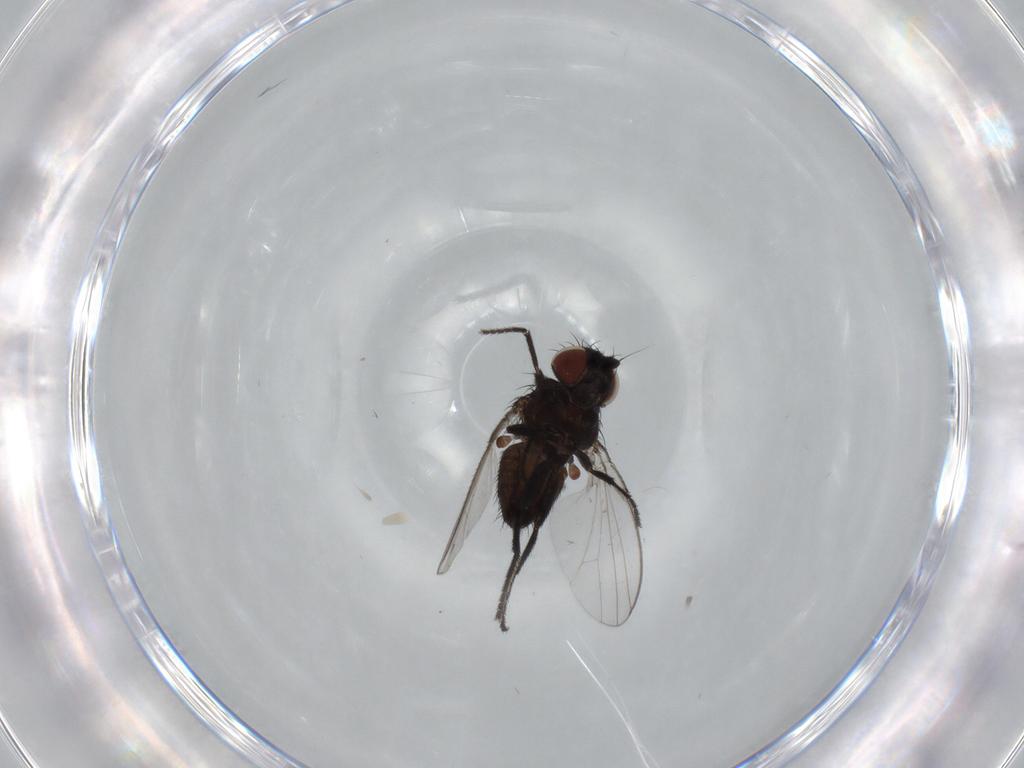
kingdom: Animalia
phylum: Arthropoda
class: Insecta
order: Diptera
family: Milichiidae
